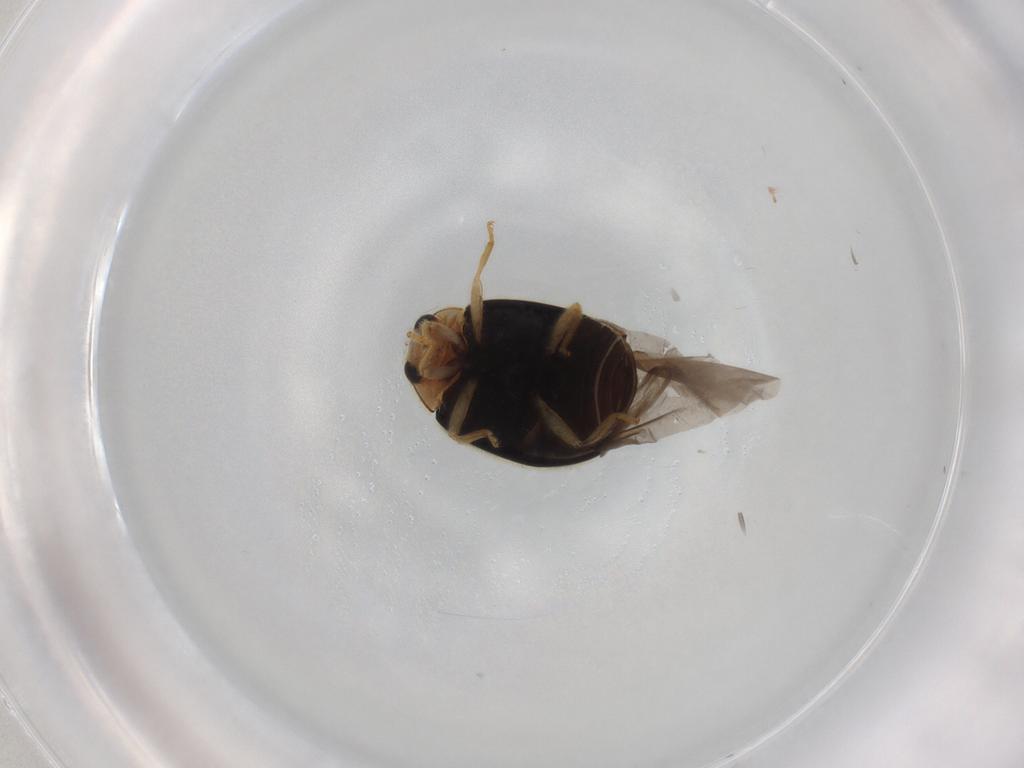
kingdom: Animalia
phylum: Arthropoda
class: Insecta
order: Coleoptera
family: Coccinellidae
